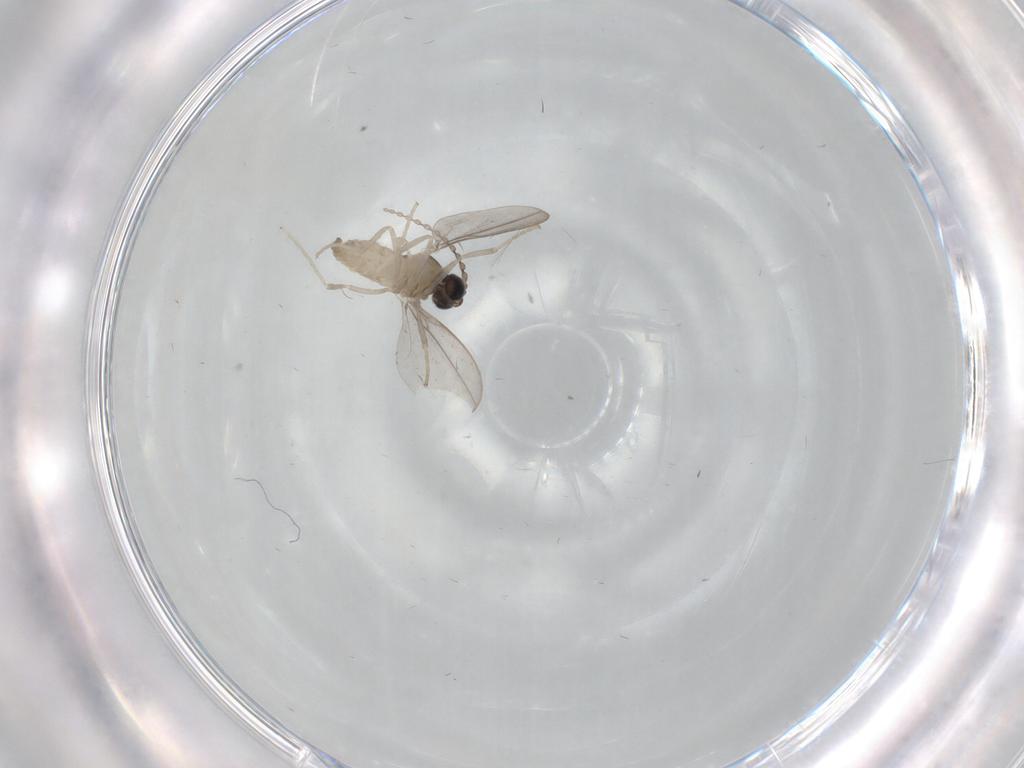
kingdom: Animalia
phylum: Arthropoda
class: Insecta
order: Diptera
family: Cecidomyiidae
